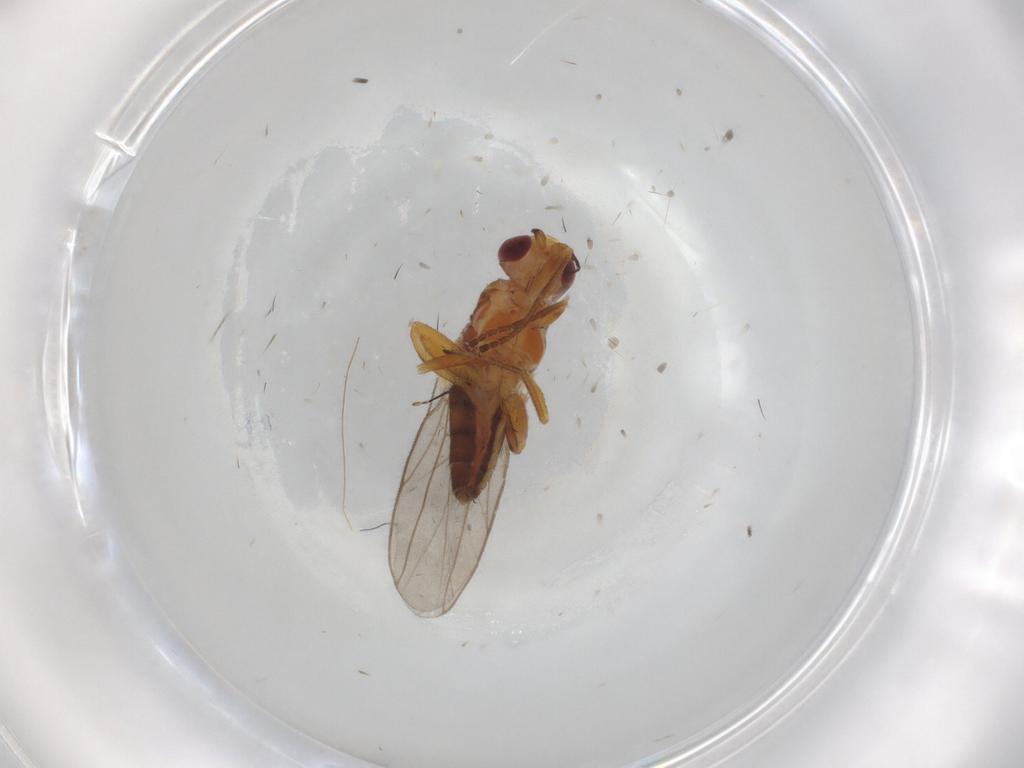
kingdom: Animalia
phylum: Arthropoda
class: Insecta
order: Diptera
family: Chloropidae
